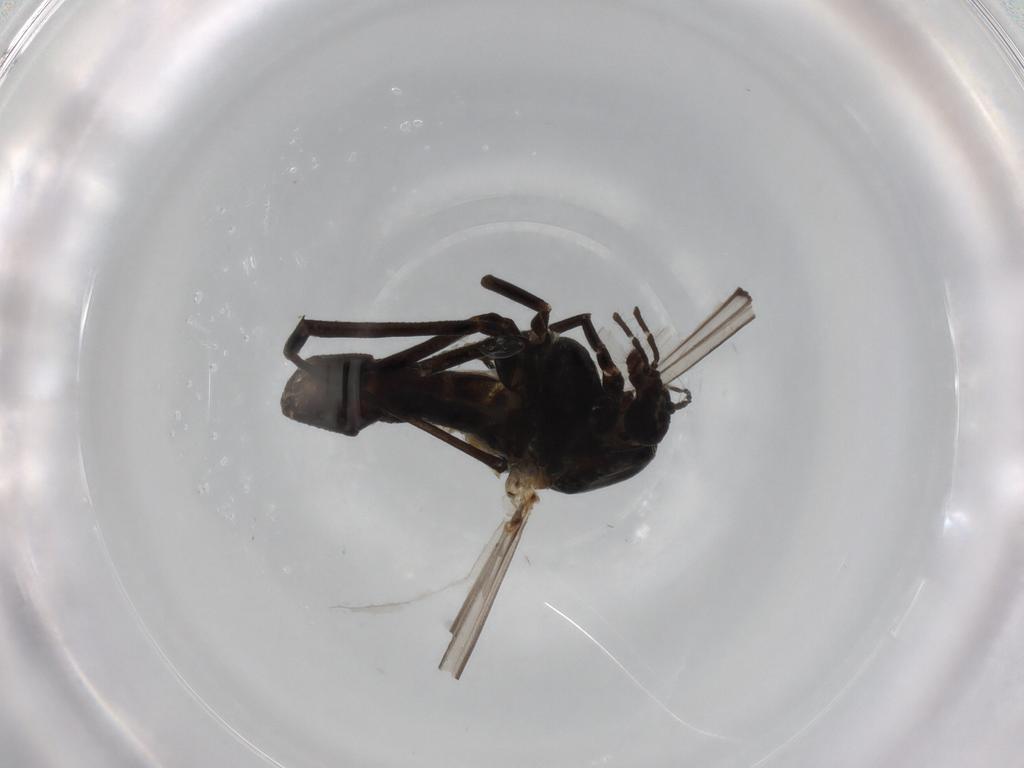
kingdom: Animalia
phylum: Arthropoda
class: Insecta
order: Diptera
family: Chironomidae
